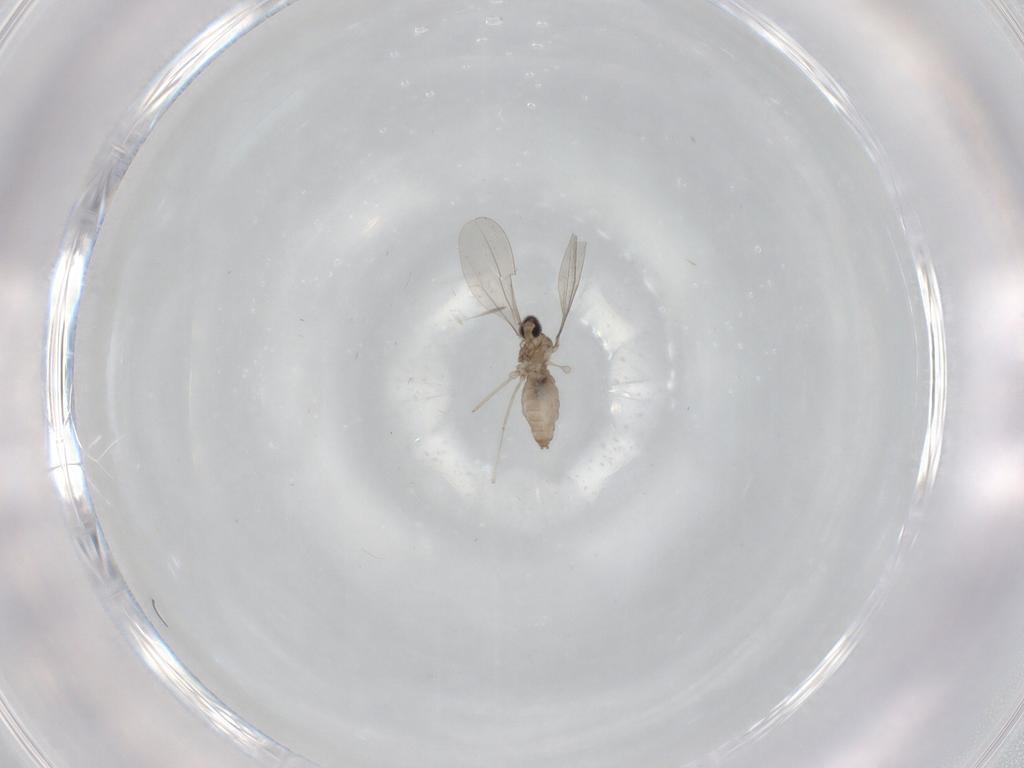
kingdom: Animalia
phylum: Arthropoda
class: Insecta
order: Diptera
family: Cecidomyiidae
